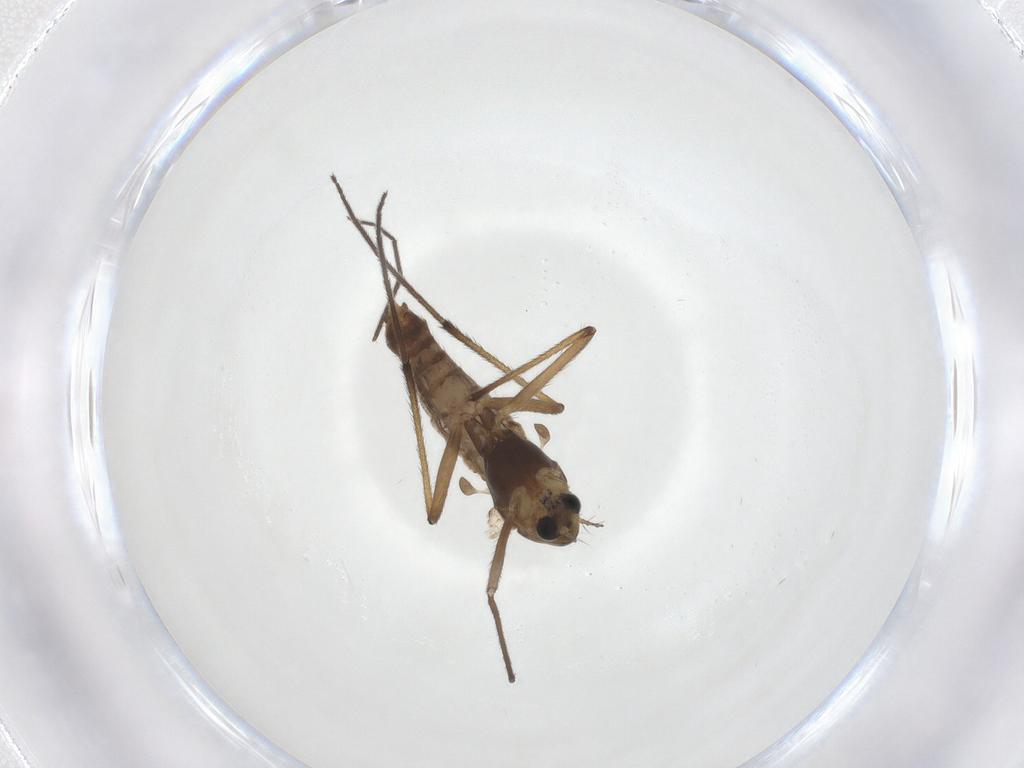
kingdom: Animalia
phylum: Arthropoda
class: Insecta
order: Diptera
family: Chironomidae
